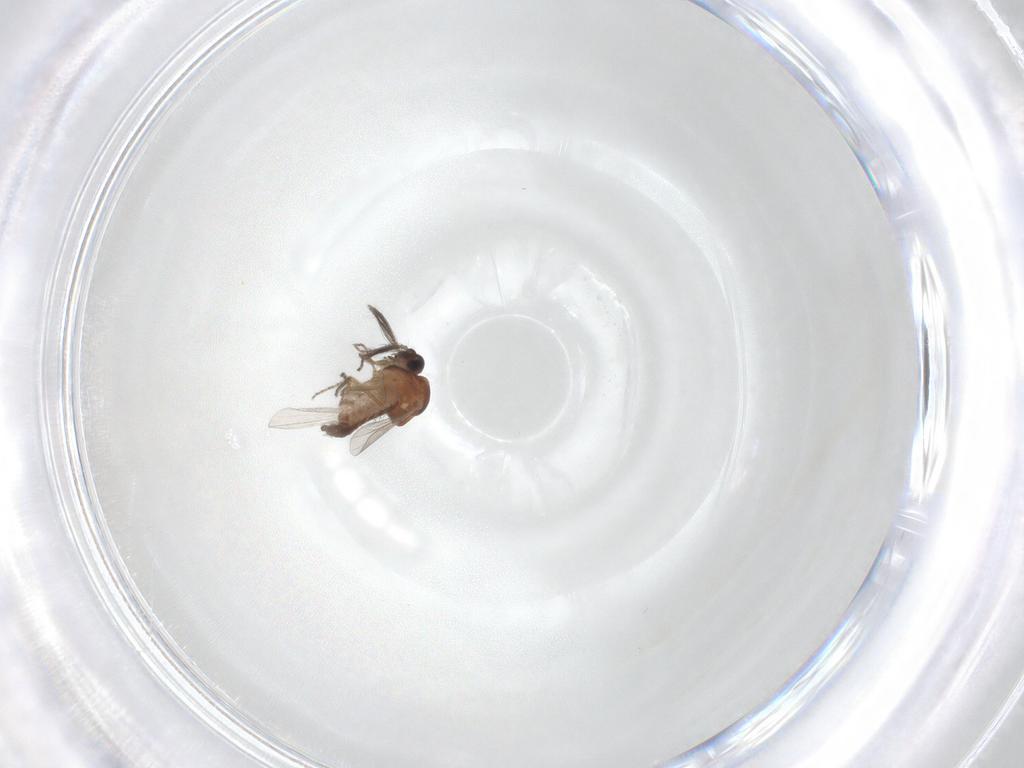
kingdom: Animalia
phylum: Arthropoda
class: Insecta
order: Diptera
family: Ceratopogonidae
